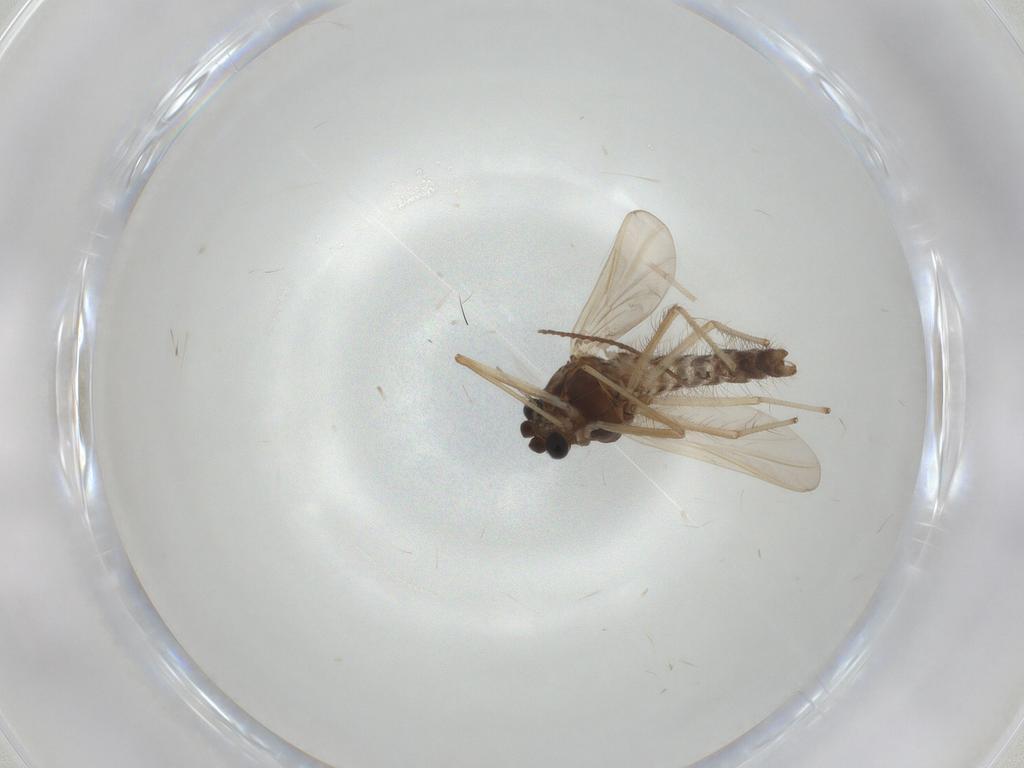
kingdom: Animalia
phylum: Arthropoda
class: Insecta
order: Diptera
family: Chironomidae
